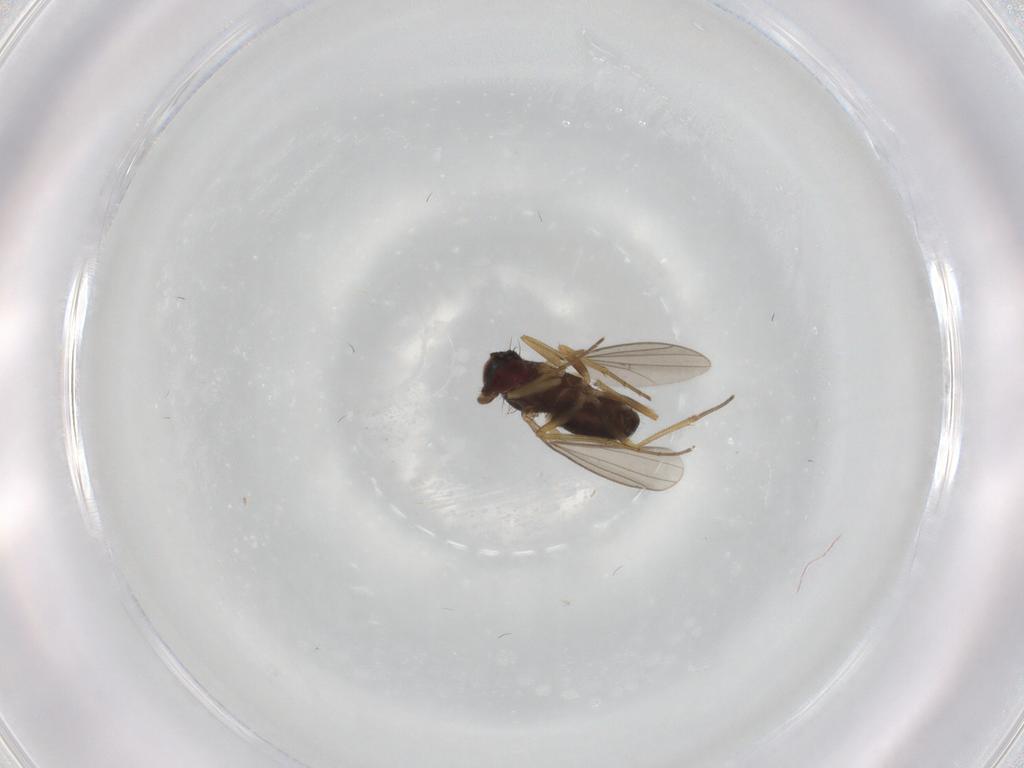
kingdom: Animalia
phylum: Arthropoda
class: Insecta
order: Diptera
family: Dolichopodidae
